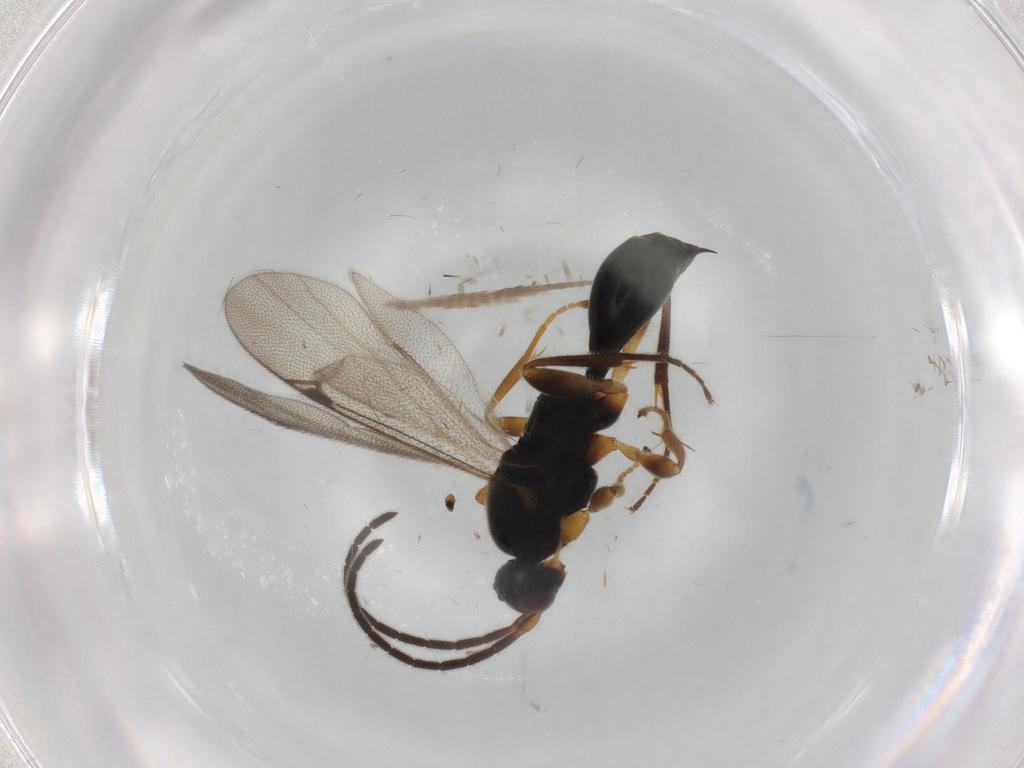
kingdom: Animalia
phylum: Arthropoda
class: Insecta
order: Hymenoptera
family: Proctotrupidae
